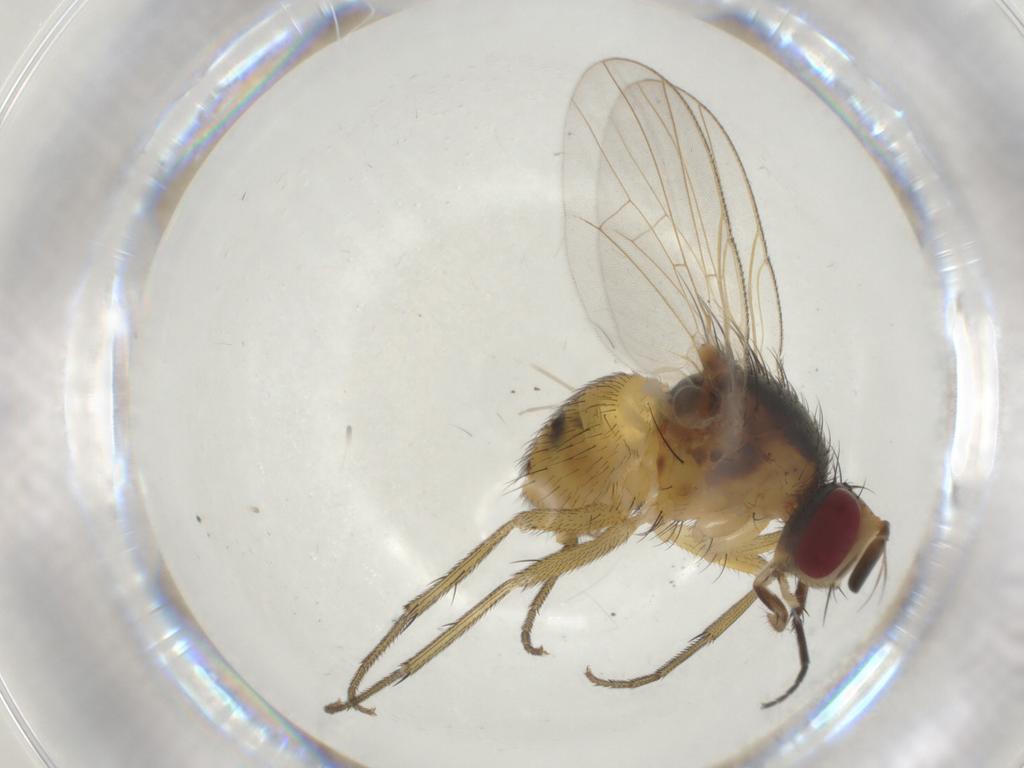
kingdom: Animalia
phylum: Arthropoda
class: Insecta
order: Diptera
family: Muscidae
